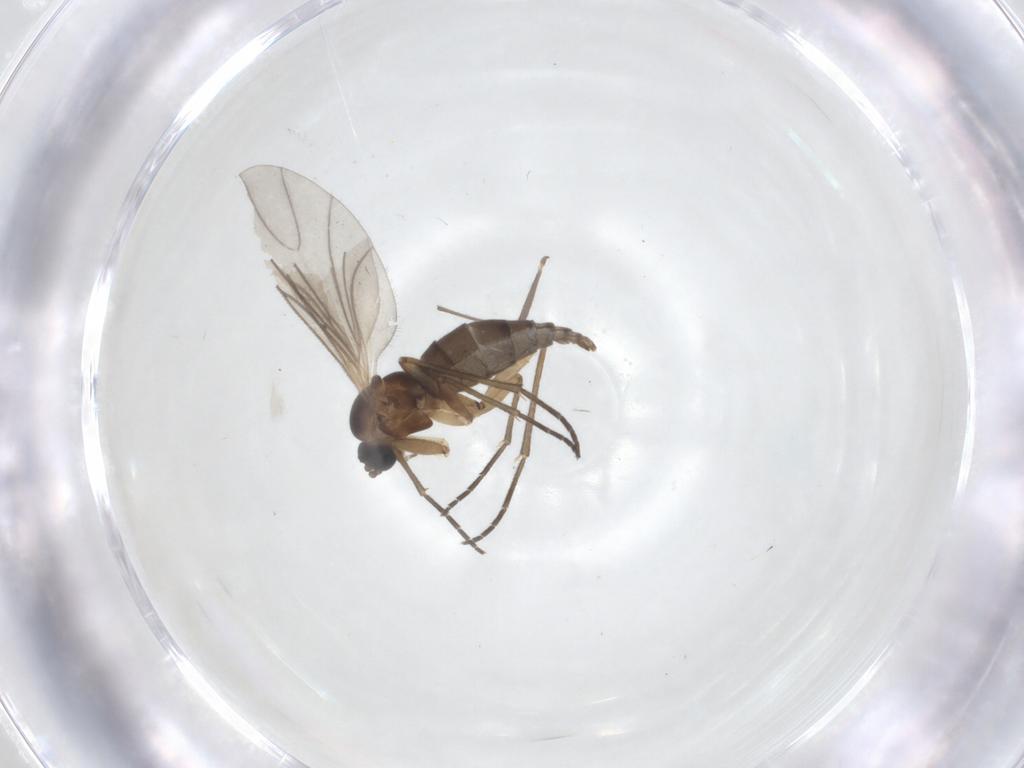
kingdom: Animalia
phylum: Arthropoda
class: Insecta
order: Diptera
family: Sciaridae
